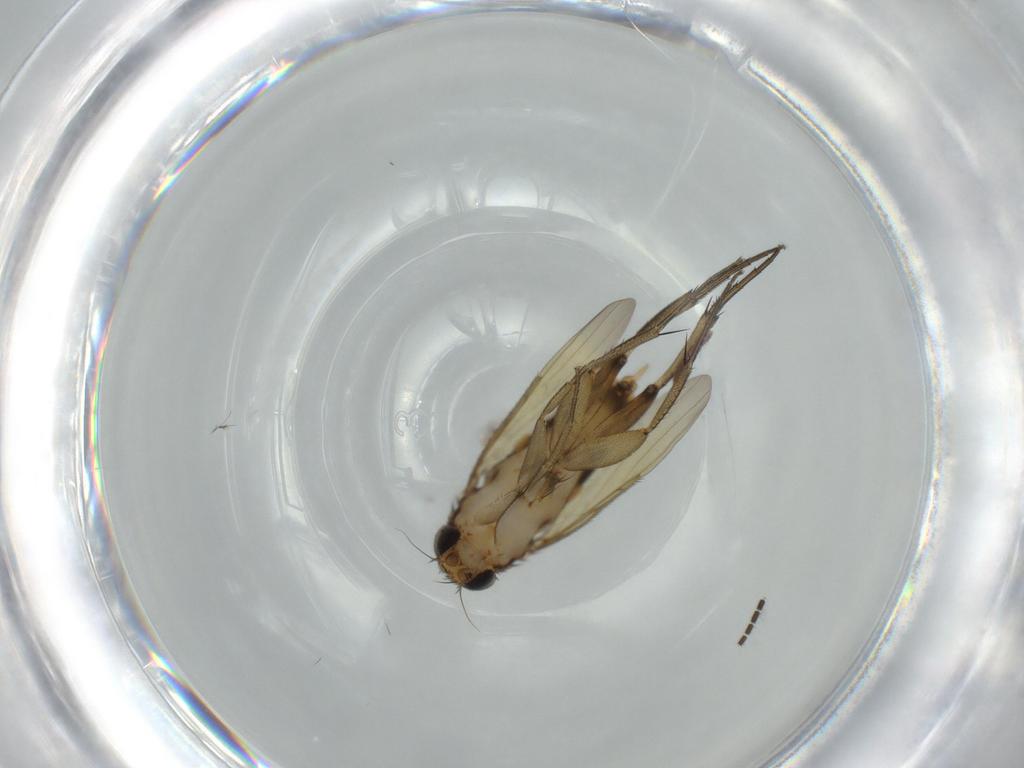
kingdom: Animalia
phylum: Arthropoda
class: Insecta
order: Diptera
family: Phoridae
